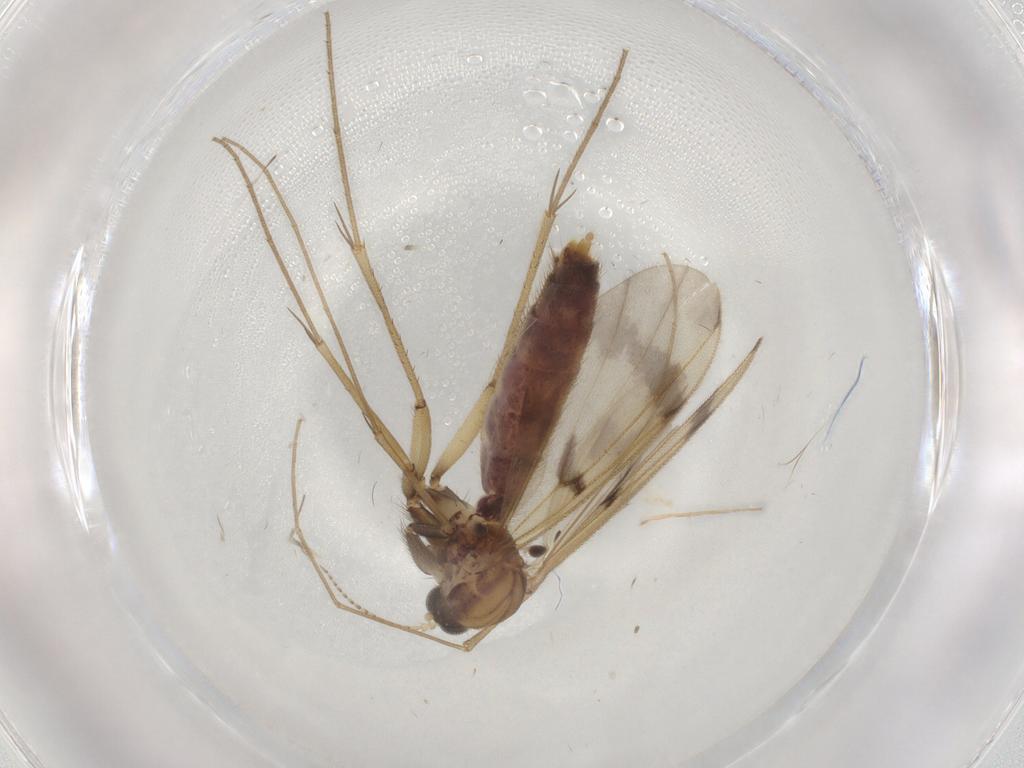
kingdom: Animalia
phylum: Arthropoda
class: Insecta
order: Diptera
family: Mycetophilidae
